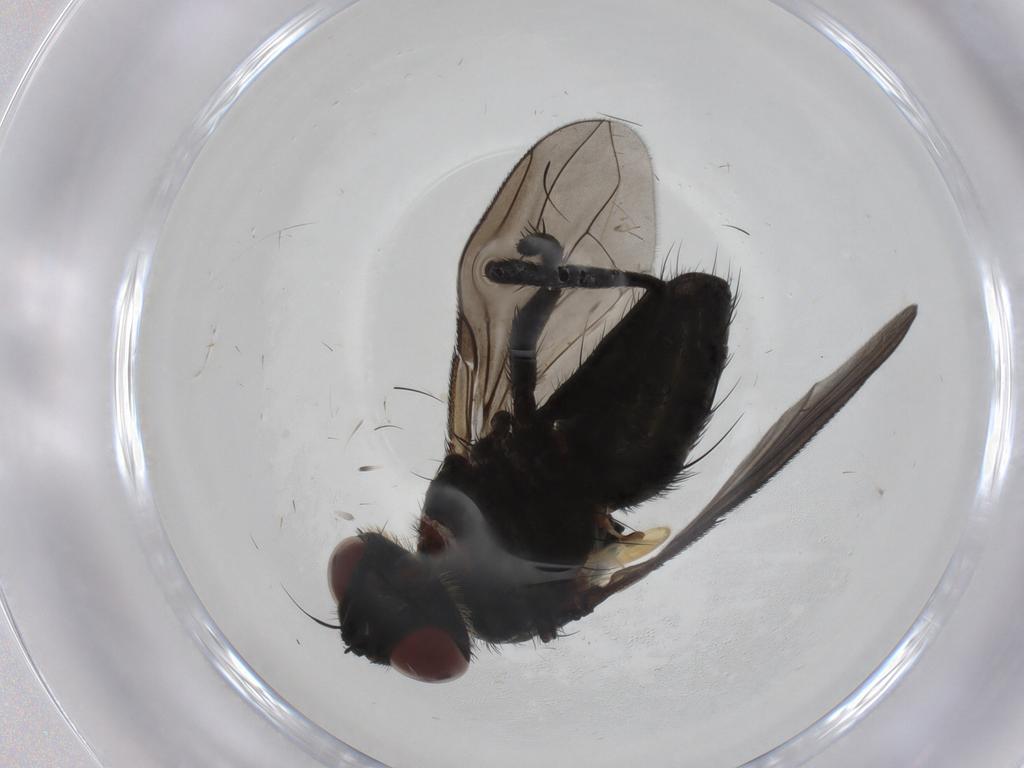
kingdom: Animalia
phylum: Arthropoda
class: Insecta
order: Diptera
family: Tachinidae
